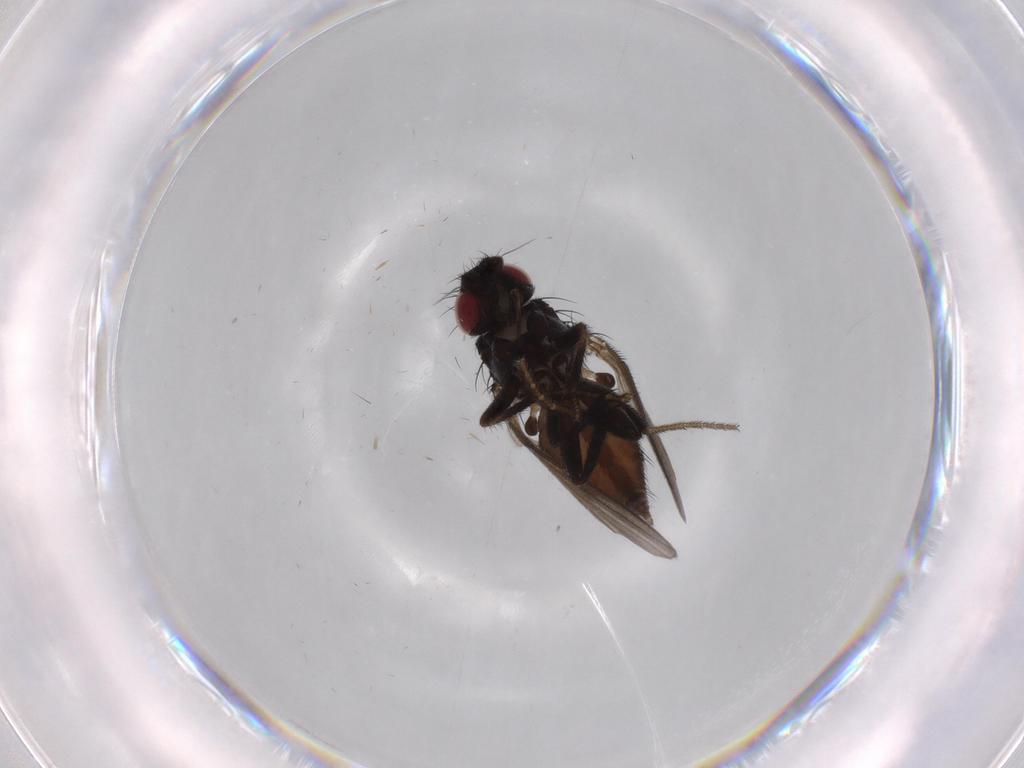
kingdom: Animalia
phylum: Arthropoda
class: Insecta
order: Diptera
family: Milichiidae
